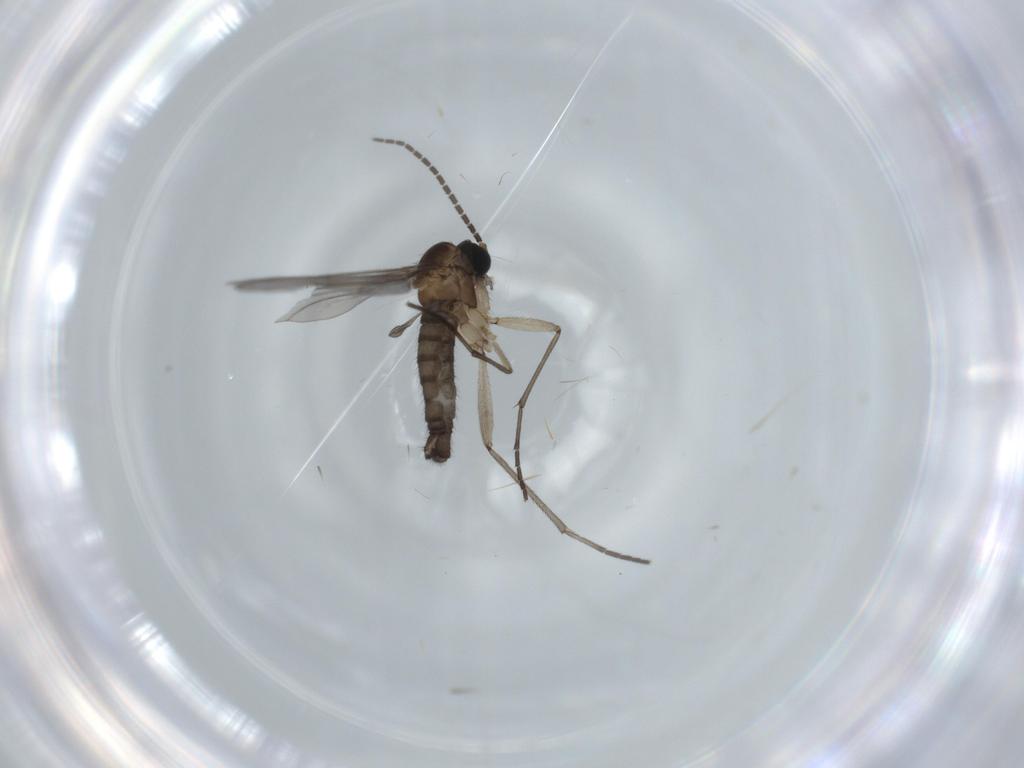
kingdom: Animalia
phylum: Arthropoda
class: Insecta
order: Diptera
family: Sciaridae
